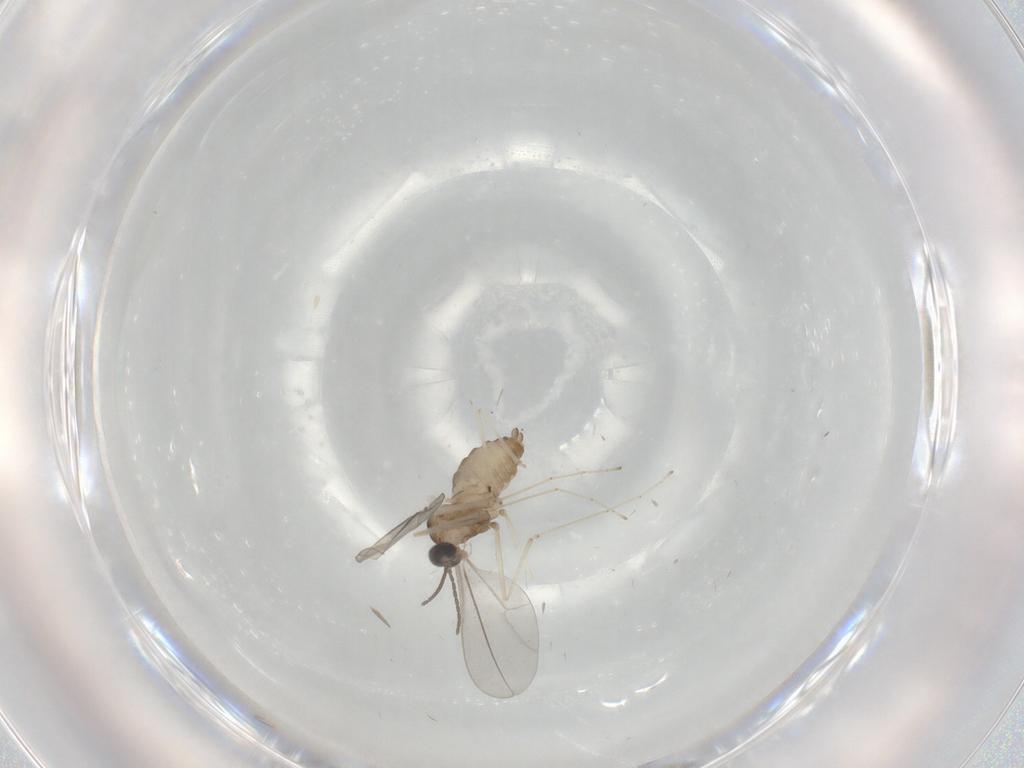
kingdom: Animalia
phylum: Arthropoda
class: Insecta
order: Diptera
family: Cecidomyiidae
